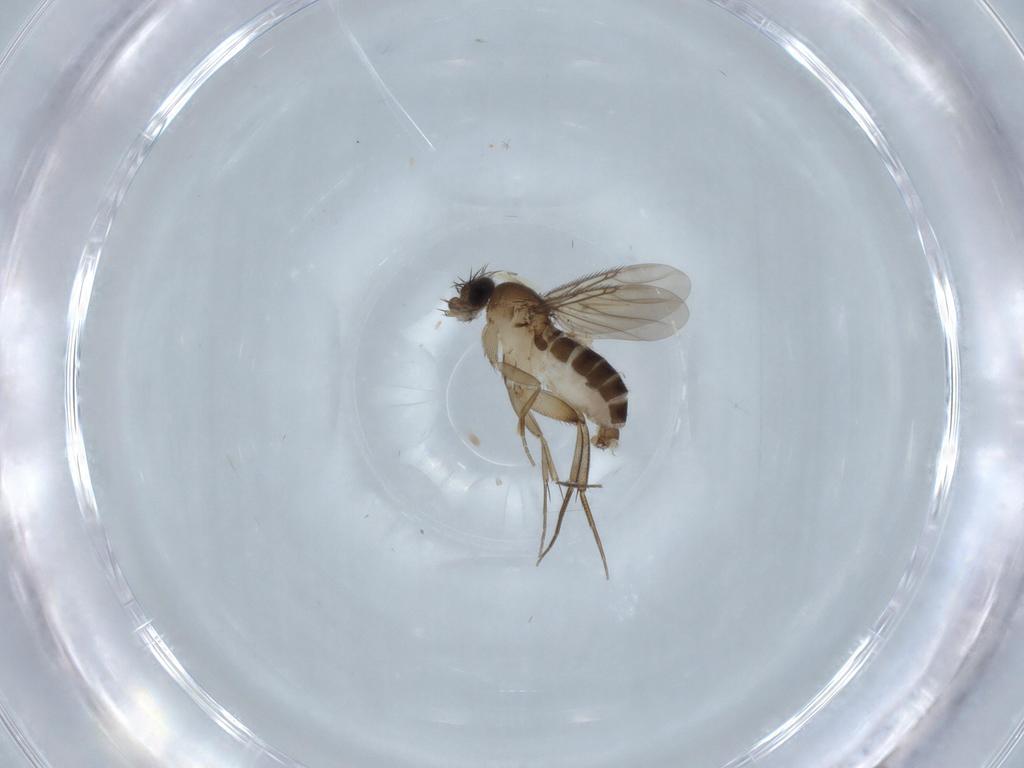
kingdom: Animalia
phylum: Arthropoda
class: Insecta
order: Diptera
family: Phoridae
